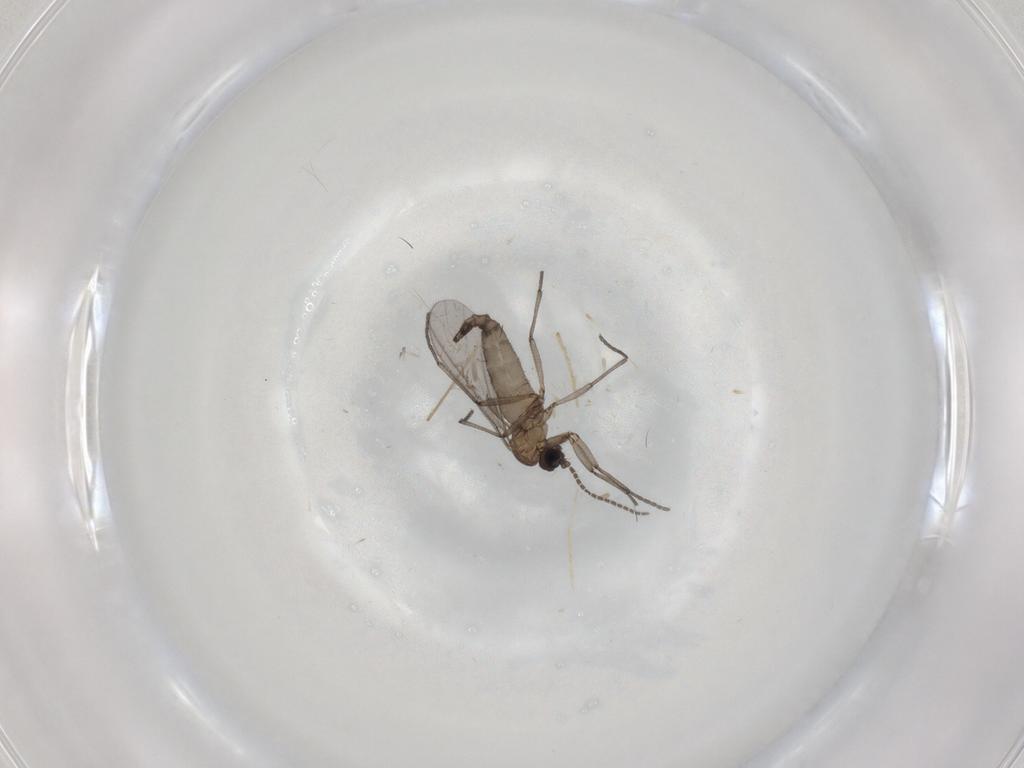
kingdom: Animalia
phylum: Arthropoda
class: Insecta
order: Diptera
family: Sciaridae
